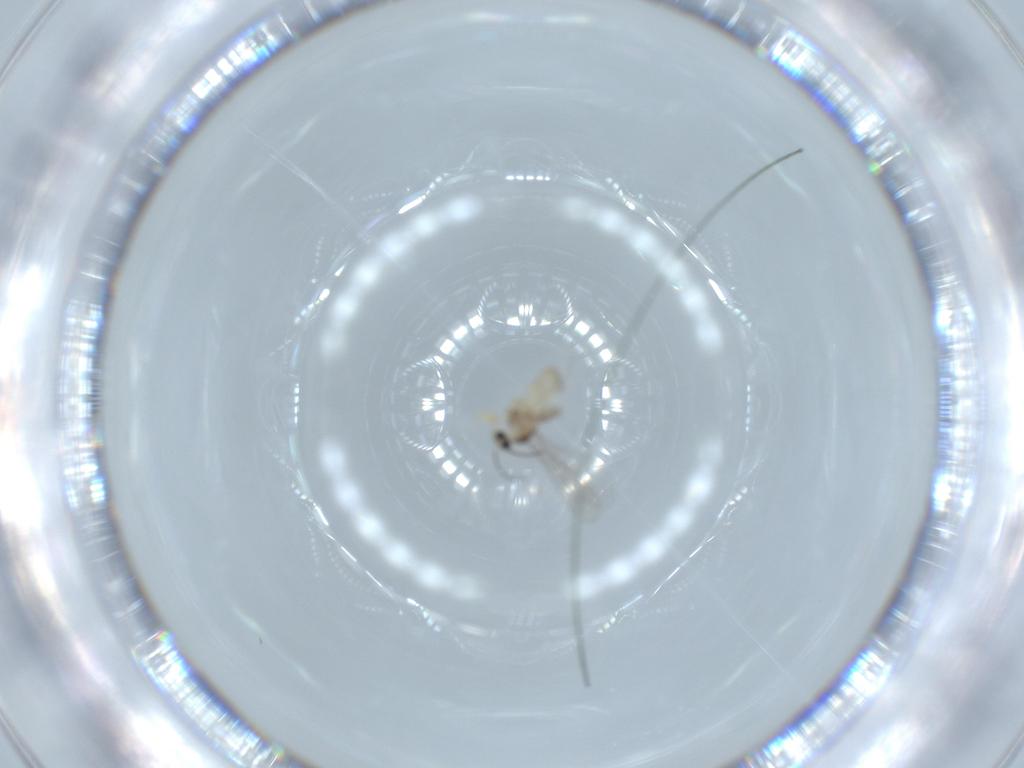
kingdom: Animalia
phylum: Arthropoda
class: Insecta
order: Diptera
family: Cecidomyiidae
